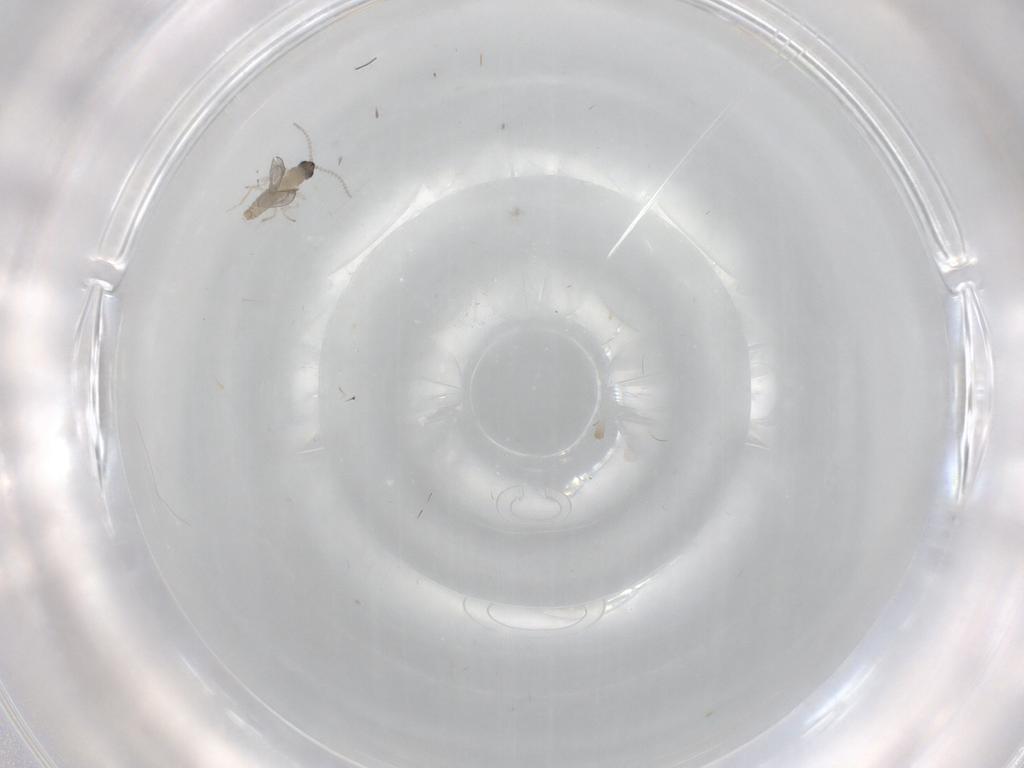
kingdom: Animalia
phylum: Arthropoda
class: Insecta
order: Diptera
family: Cecidomyiidae
